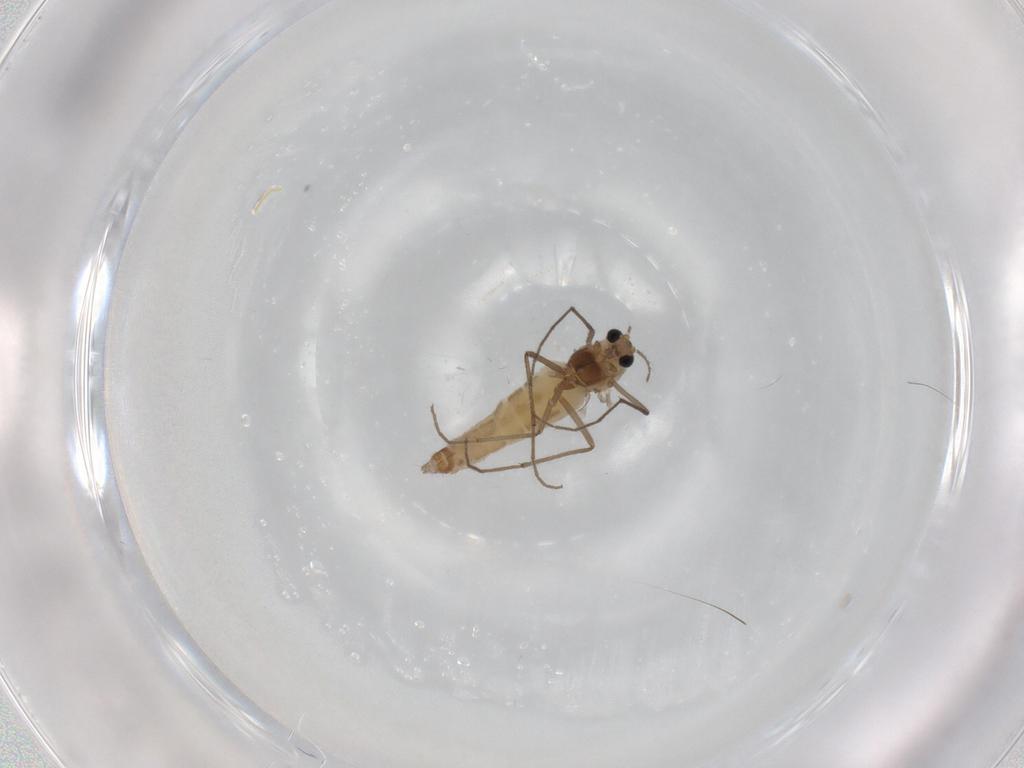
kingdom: Animalia
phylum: Arthropoda
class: Insecta
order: Diptera
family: Chironomidae
